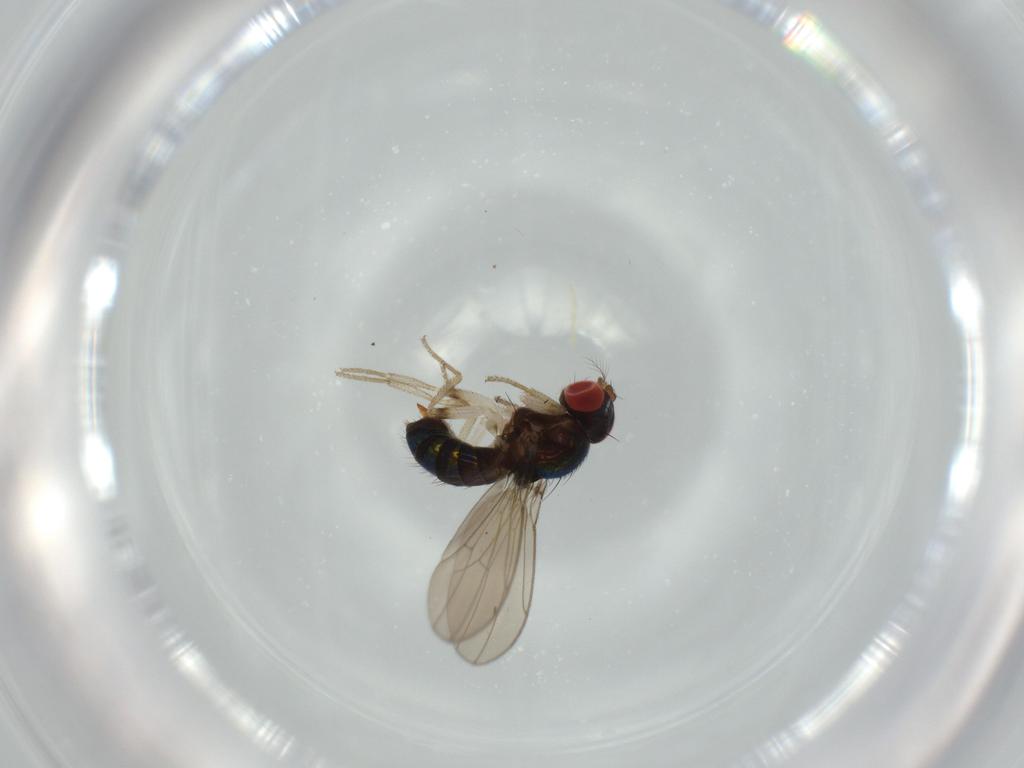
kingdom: Animalia
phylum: Arthropoda
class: Insecta
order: Diptera
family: Drosophilidae
